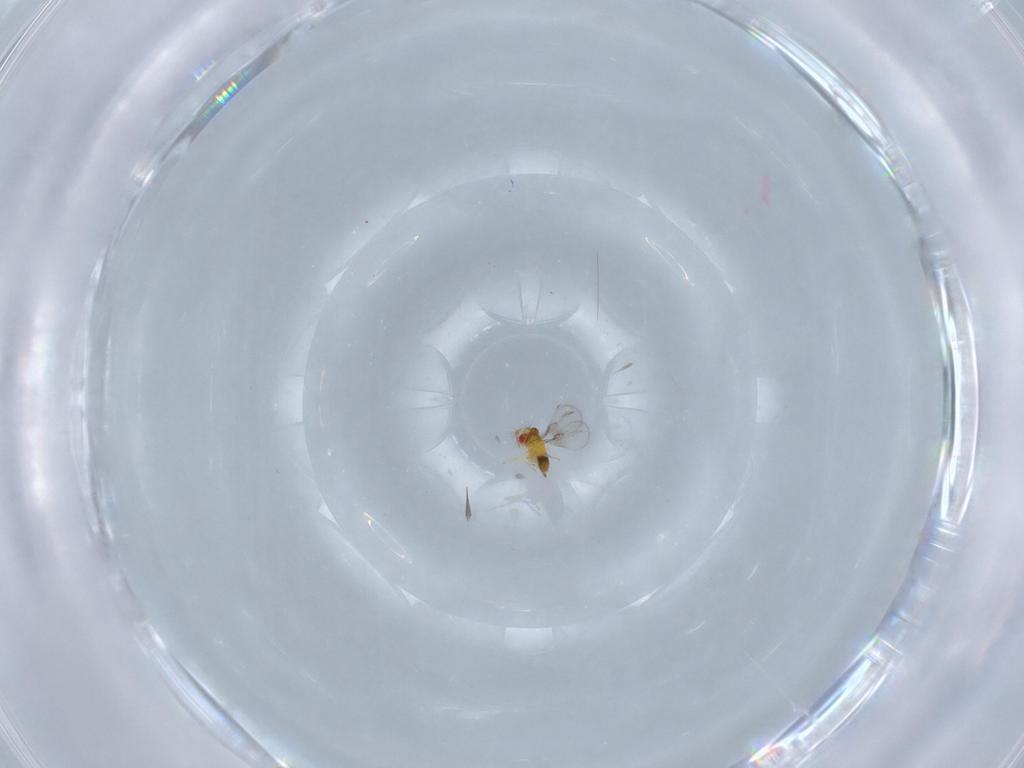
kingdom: Animalia
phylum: Arthropoda
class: Insecta
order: Hymenoptera
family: Trichogrammatidae
